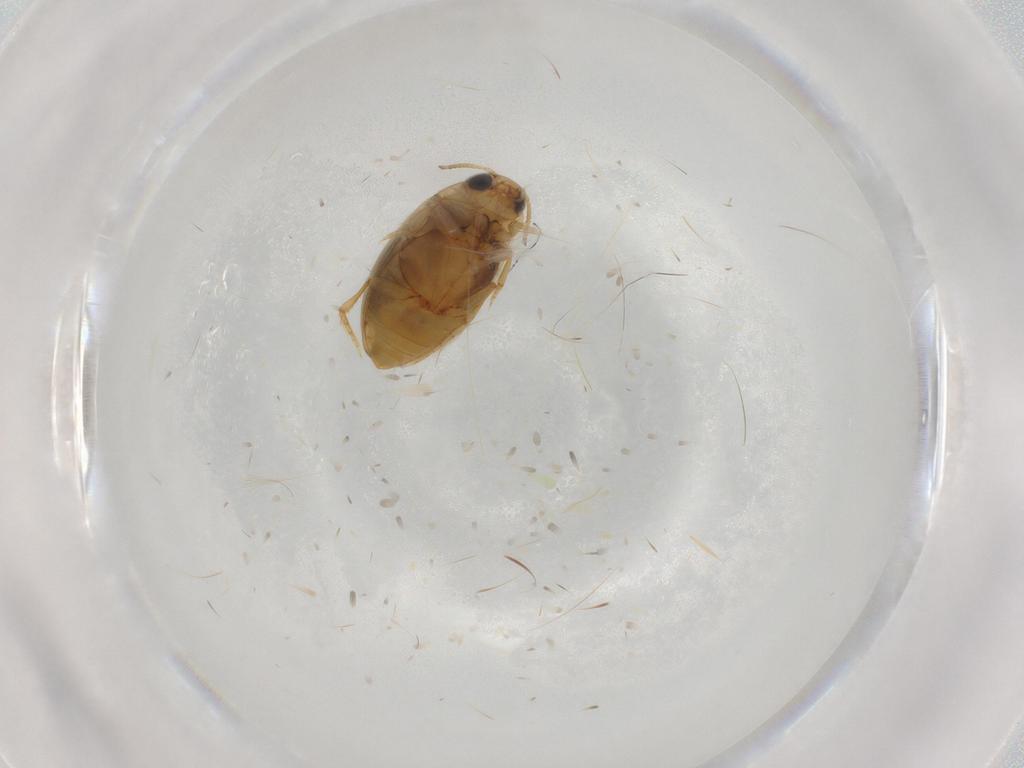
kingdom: Animalia
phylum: Arthropoda
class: Insecta
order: Coleoptera
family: Dytiscidae
